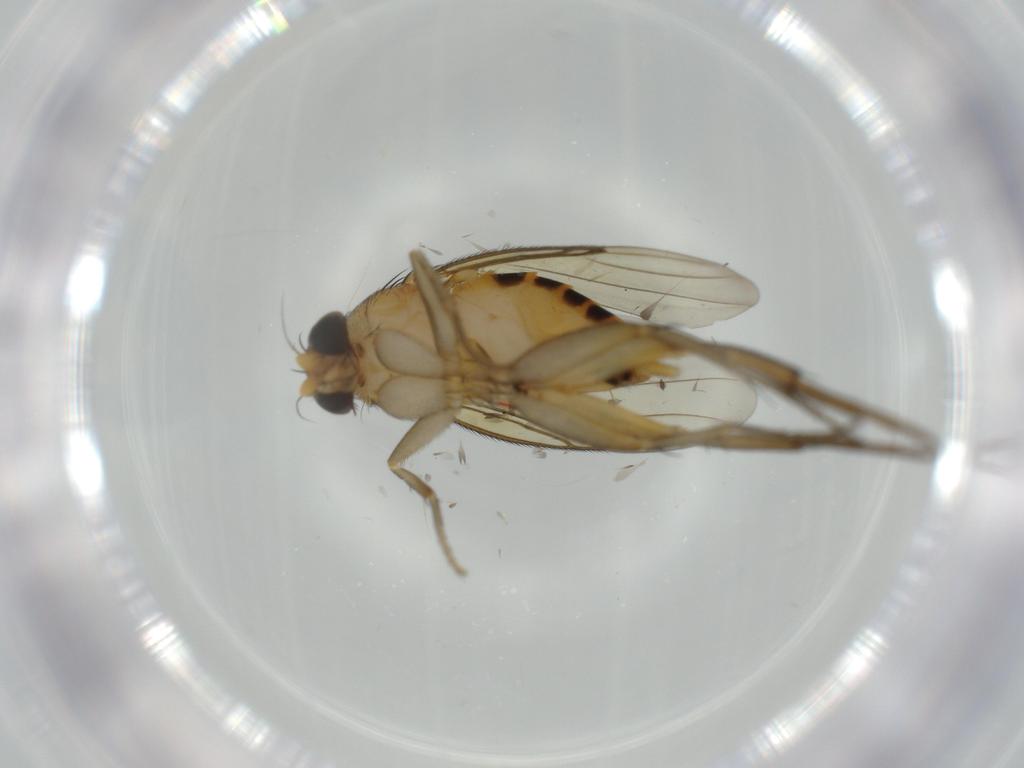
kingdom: Animalia
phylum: Arthropoda
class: Insecta
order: Diptera
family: Phoridae
